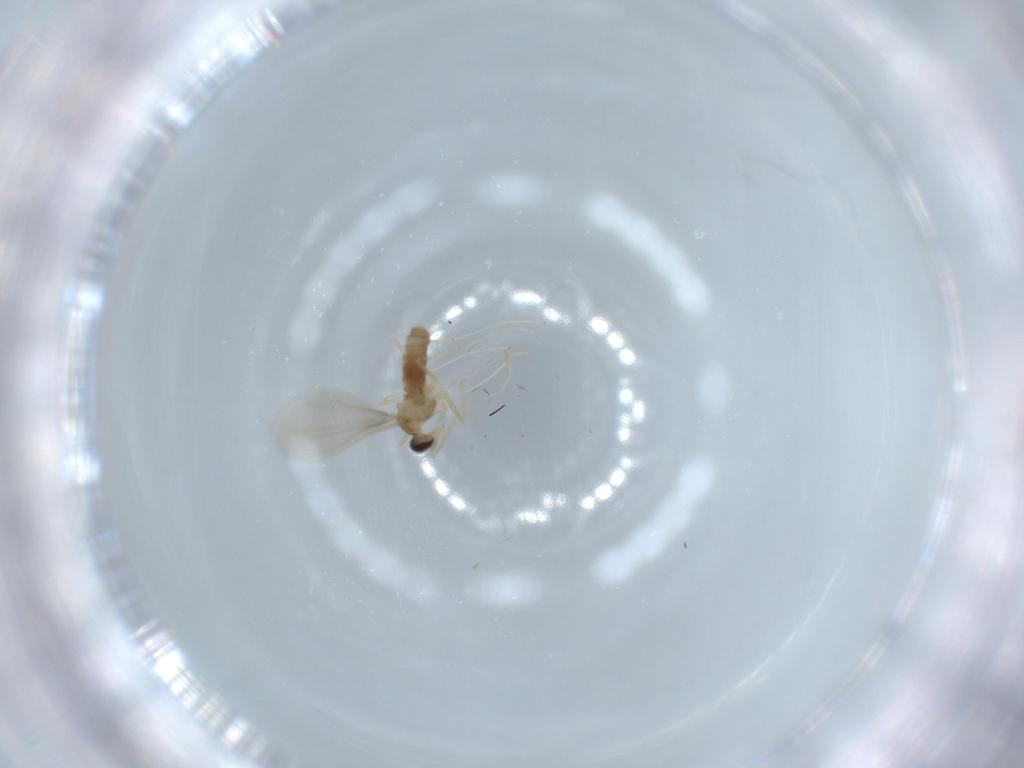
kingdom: Animalia
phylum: Arthropoda
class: Insecta
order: Diptera
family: Cecidomyiidae
